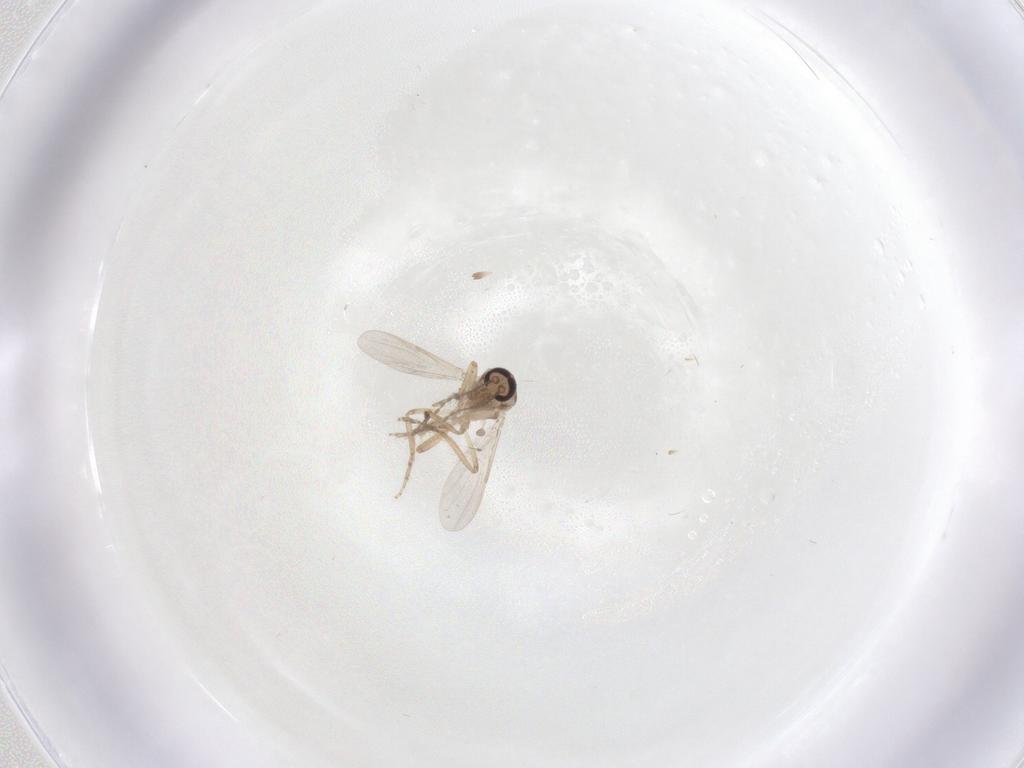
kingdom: Animalia
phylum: Arthropoda
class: Insecta
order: Diptera
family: Ceratopogonidae
